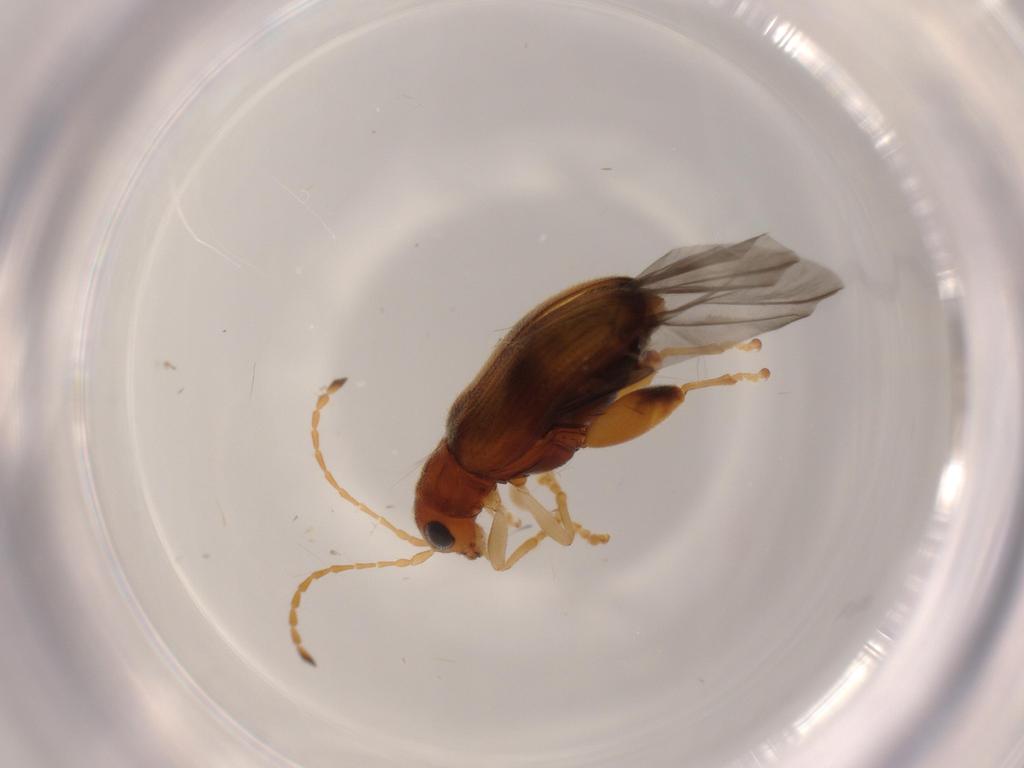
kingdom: Animalia
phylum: Arthropoda
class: Insecta
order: Coleoptera
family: Chrysomelidae
